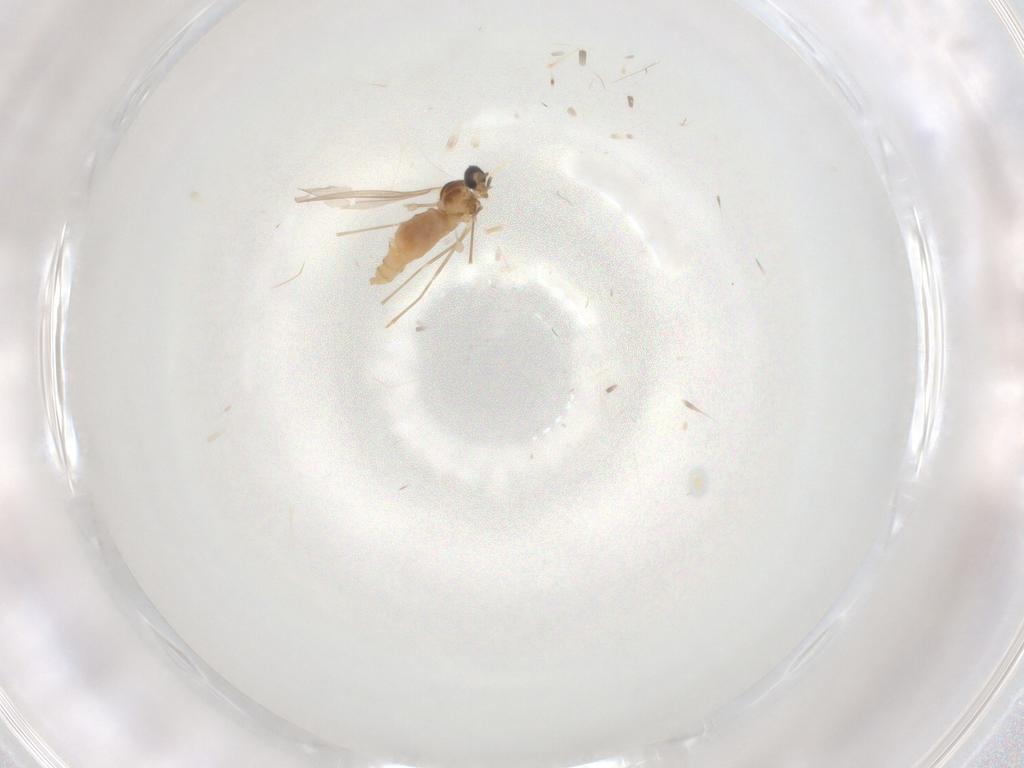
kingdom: Animalia
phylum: Arthropoda
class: Insecta
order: Diptera
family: Cecidomyiidae
